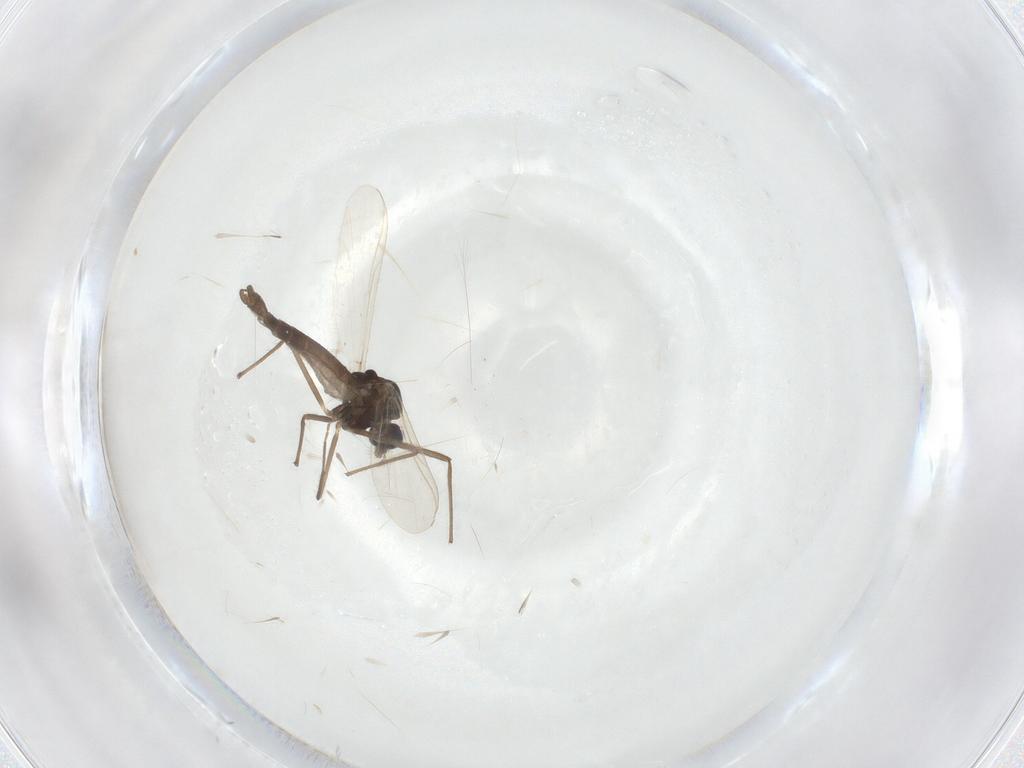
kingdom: Animalia
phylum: Arthropoda
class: Insecta
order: Diptera
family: Chironomidae
